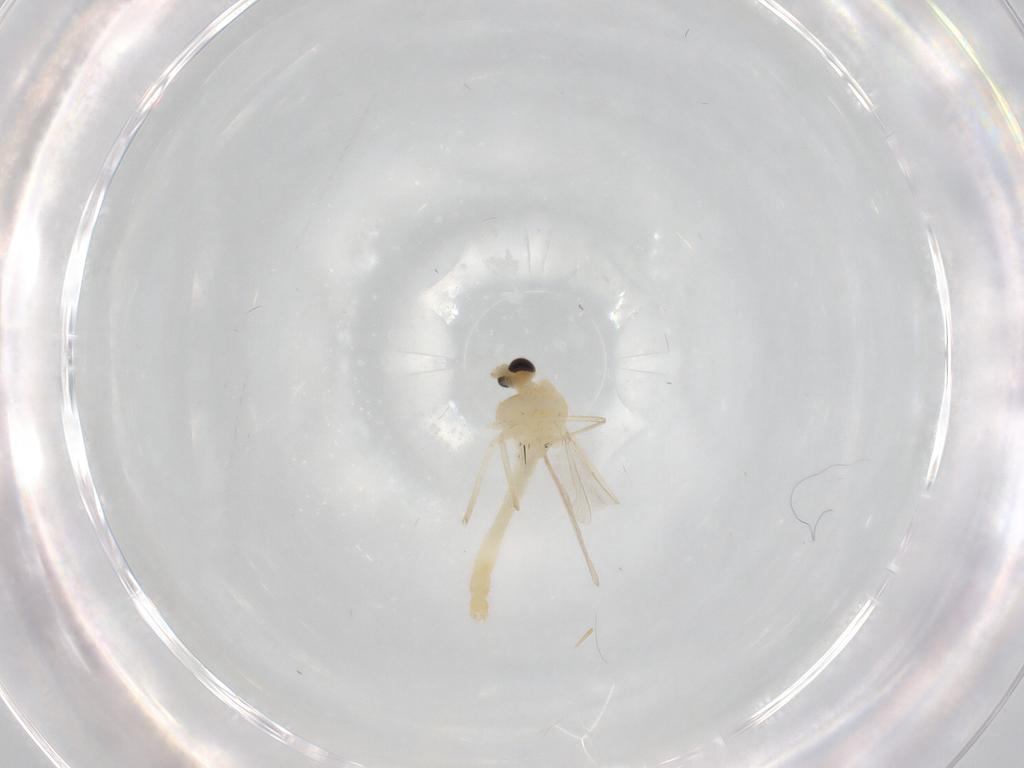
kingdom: Animalia
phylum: Arthropoda
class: Insecta
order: Diptera
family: Chironomidae
